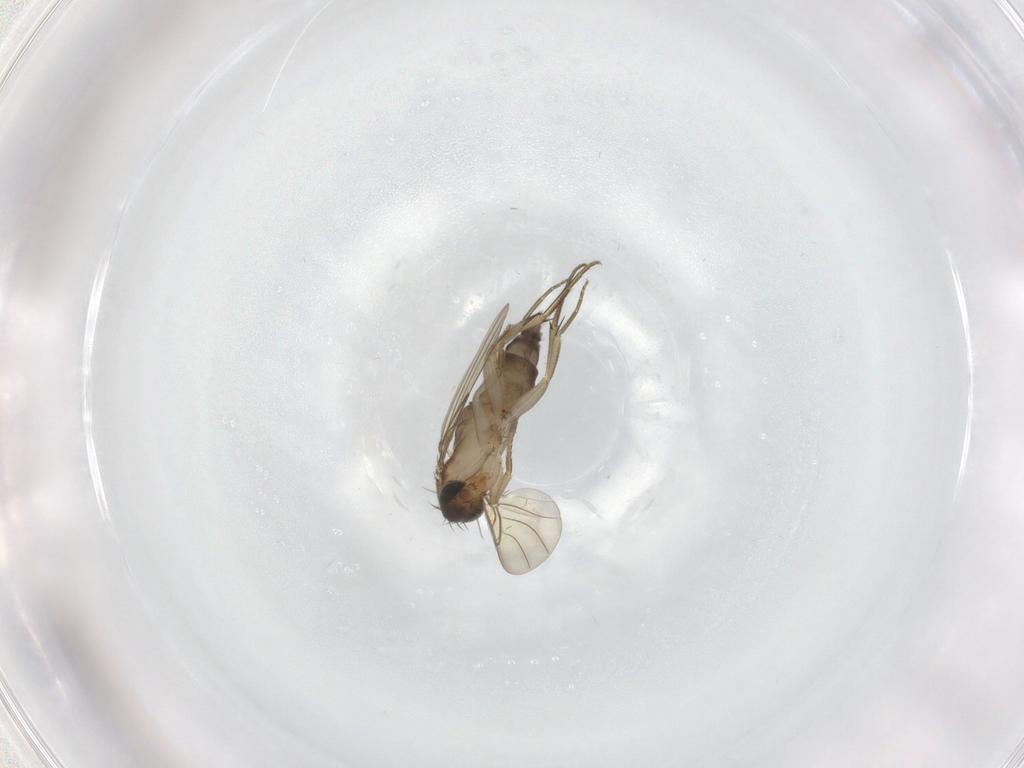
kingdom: Animalia
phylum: Arthropoda
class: Insecta
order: Diptera
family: Phoridae
